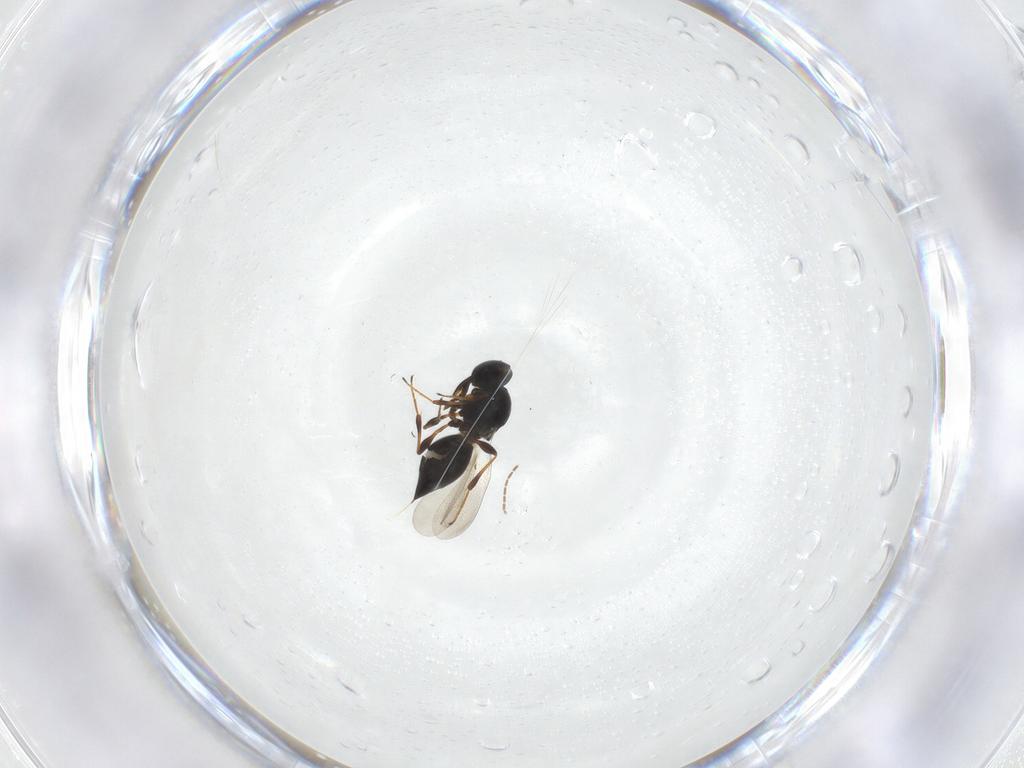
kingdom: Animalia
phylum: Arthropoda
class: Insecta
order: Hymenoptera
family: Platygastridae
